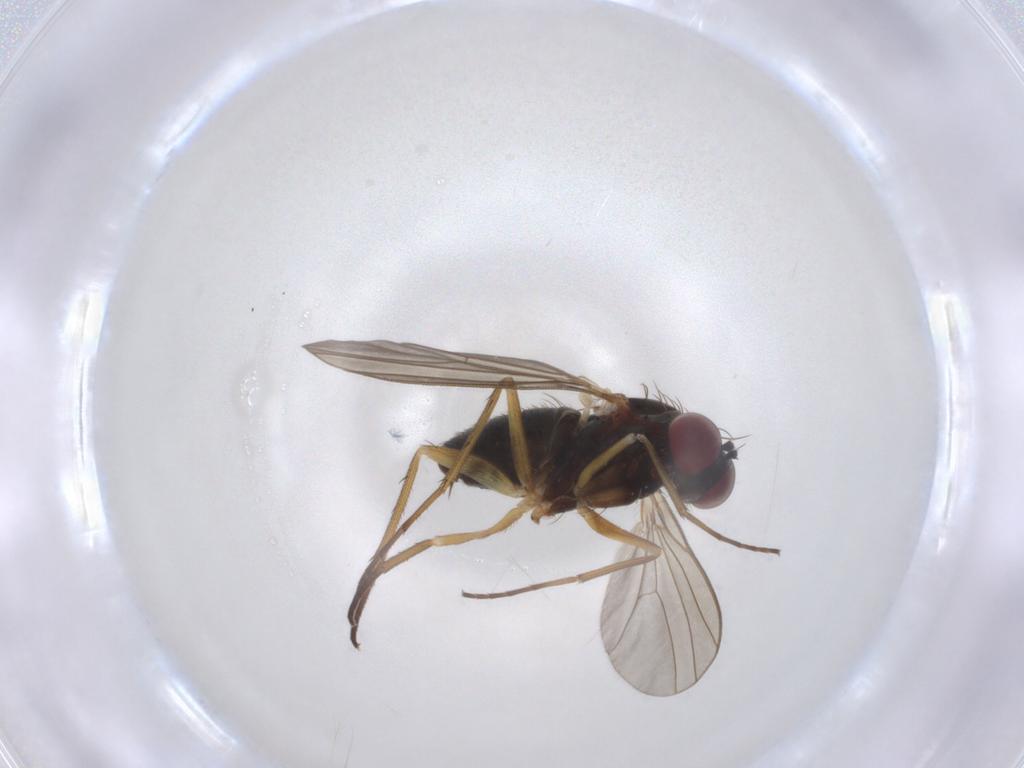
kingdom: Animalia
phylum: Arthropoda
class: Insecta
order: Diptera
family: Dolichopodidae
